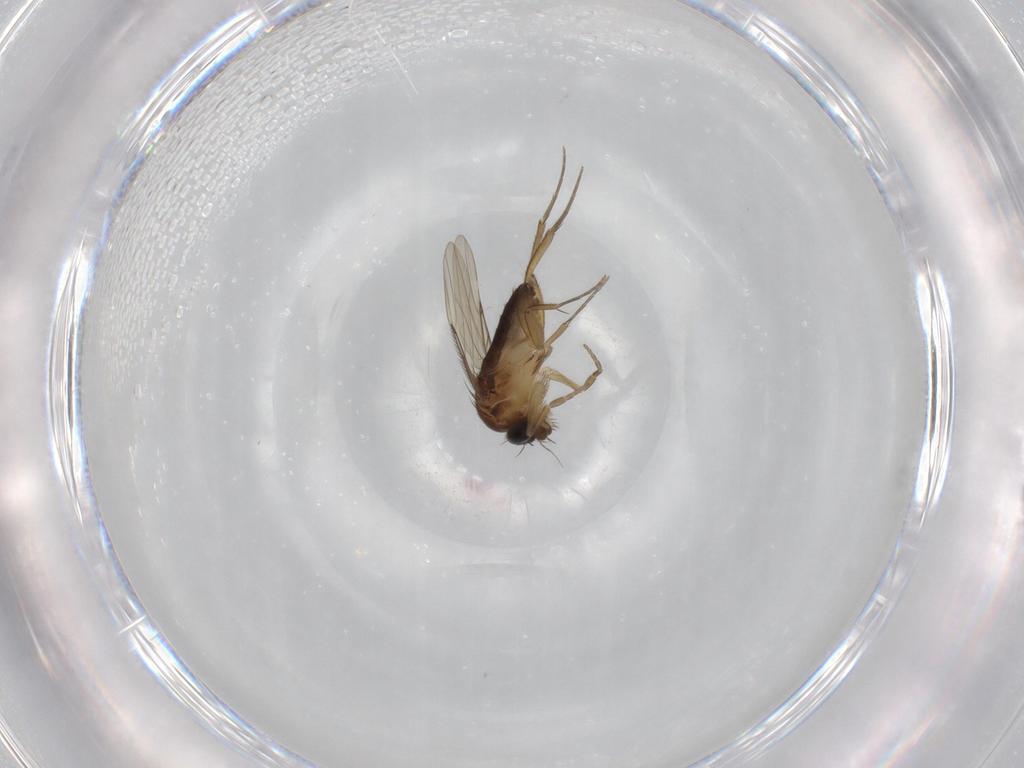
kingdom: Animalia
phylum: Arthropoda
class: Insecta
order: Diptera
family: Phoridae
